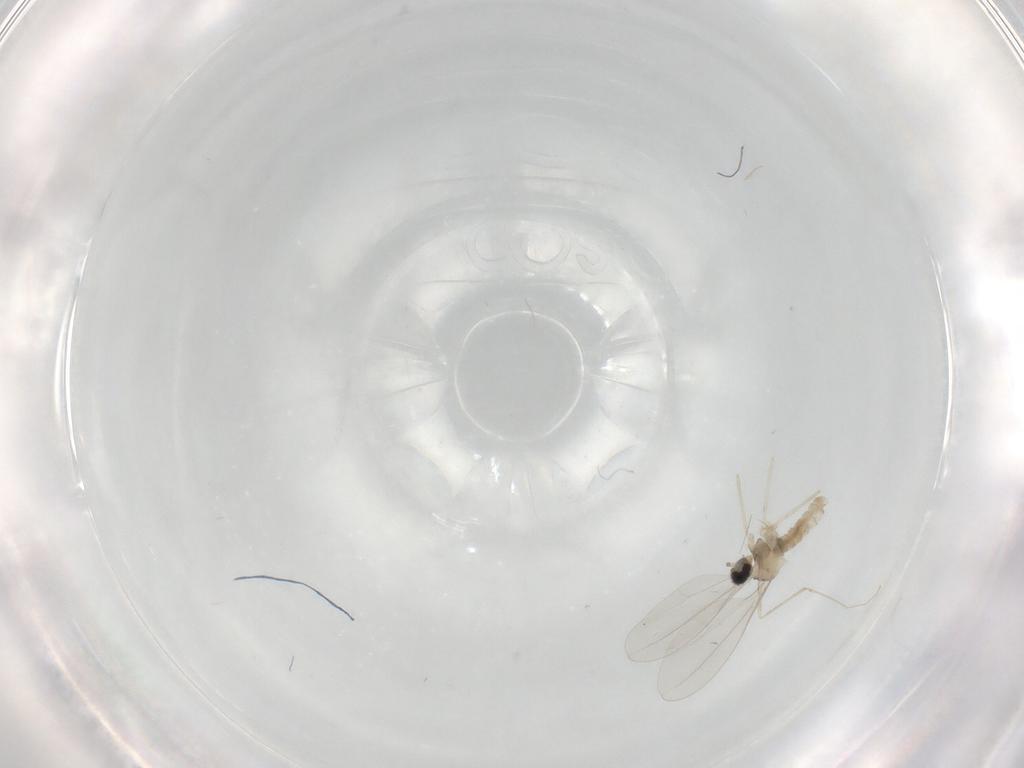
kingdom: Animalia
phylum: Arthropoda
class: Insecta
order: Diptera
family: Cecidomyiidae
